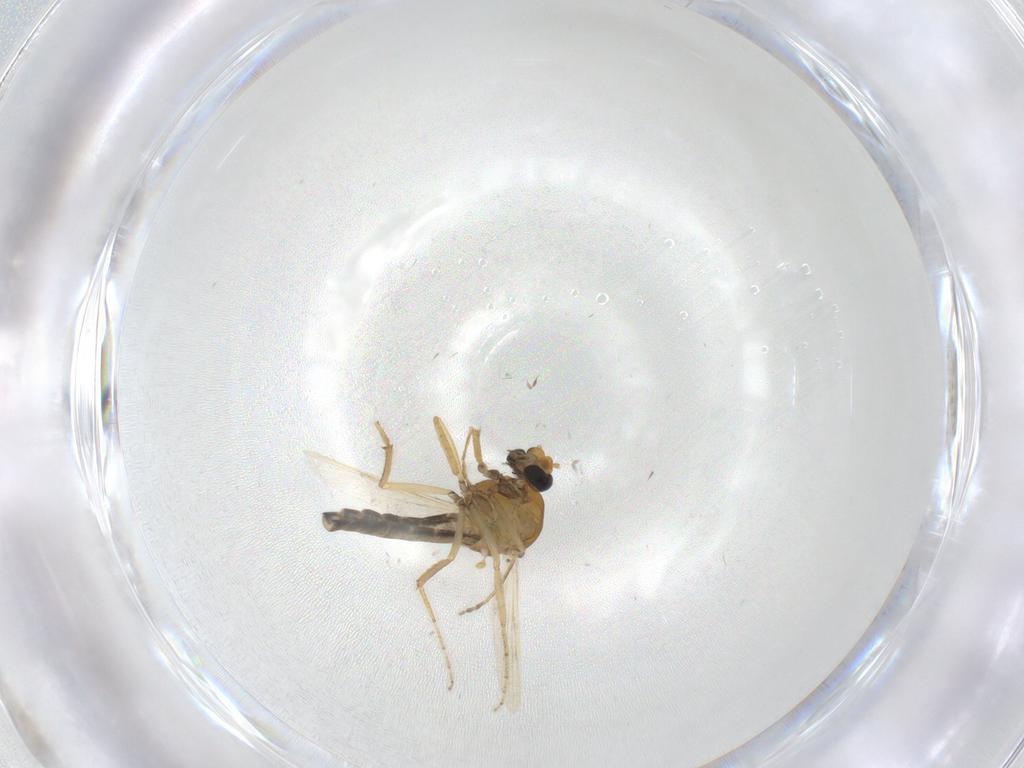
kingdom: Animalia
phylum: Arthropoda
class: Insecta
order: Diptera
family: Ceratopogonidae
